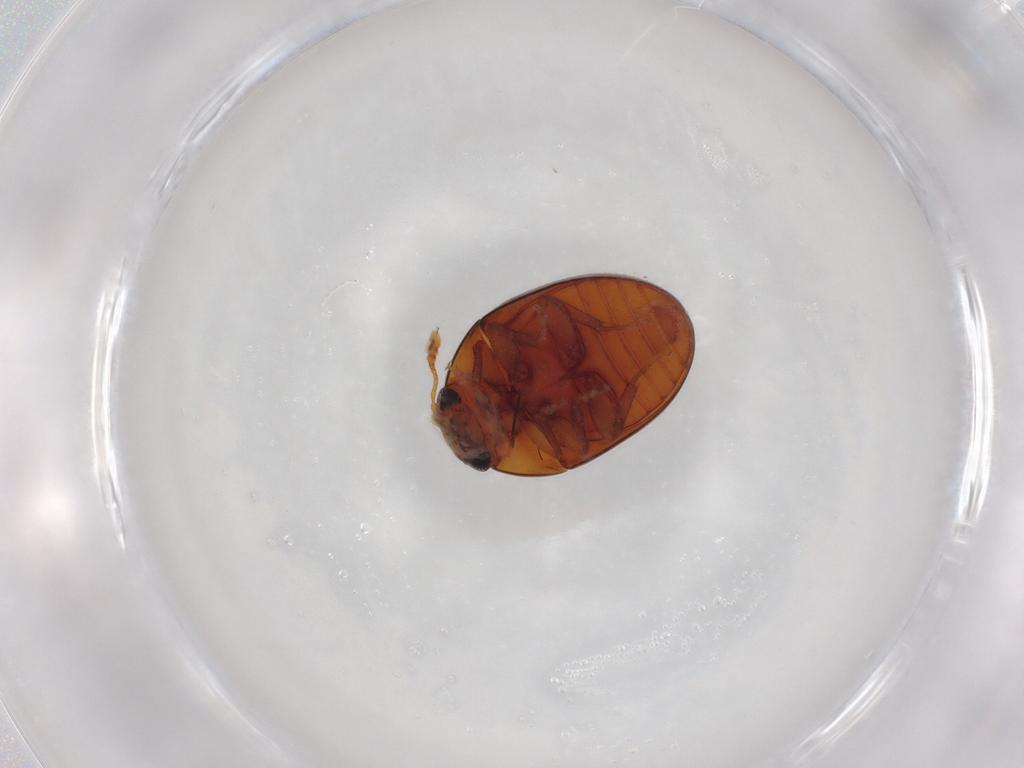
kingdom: Animalia
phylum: Arthropoda
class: Insecta
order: Coleoptera
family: Phalacridae
